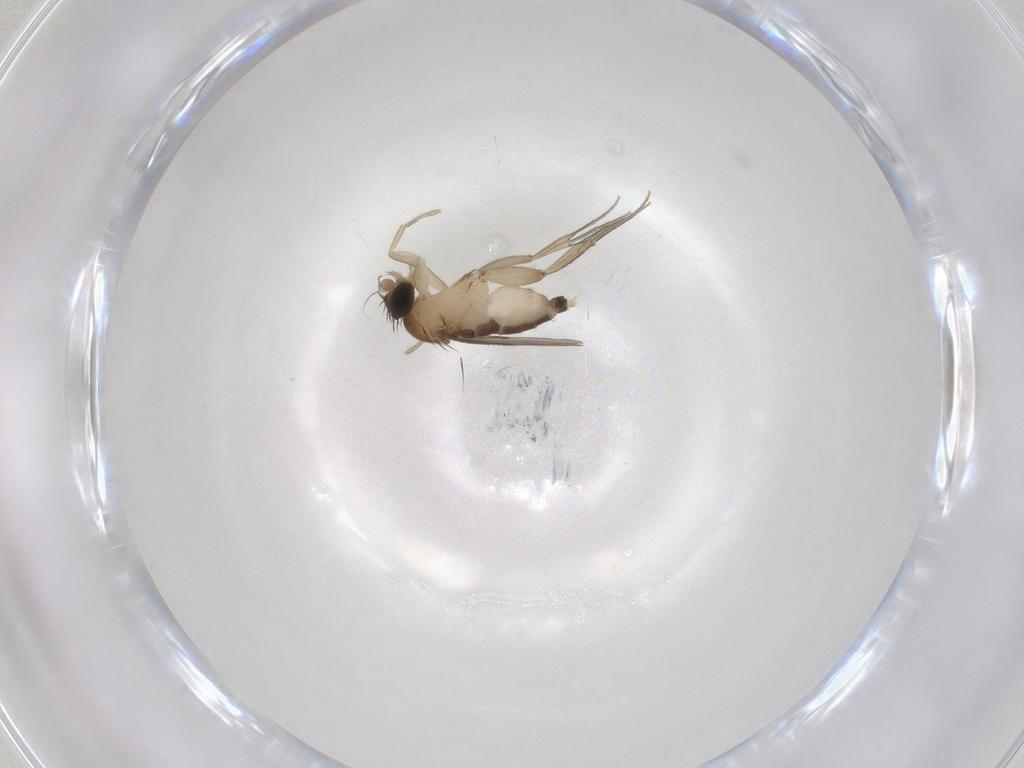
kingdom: Animalia
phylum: Arthropoda
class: Insecta
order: Diptera
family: Phoridae
